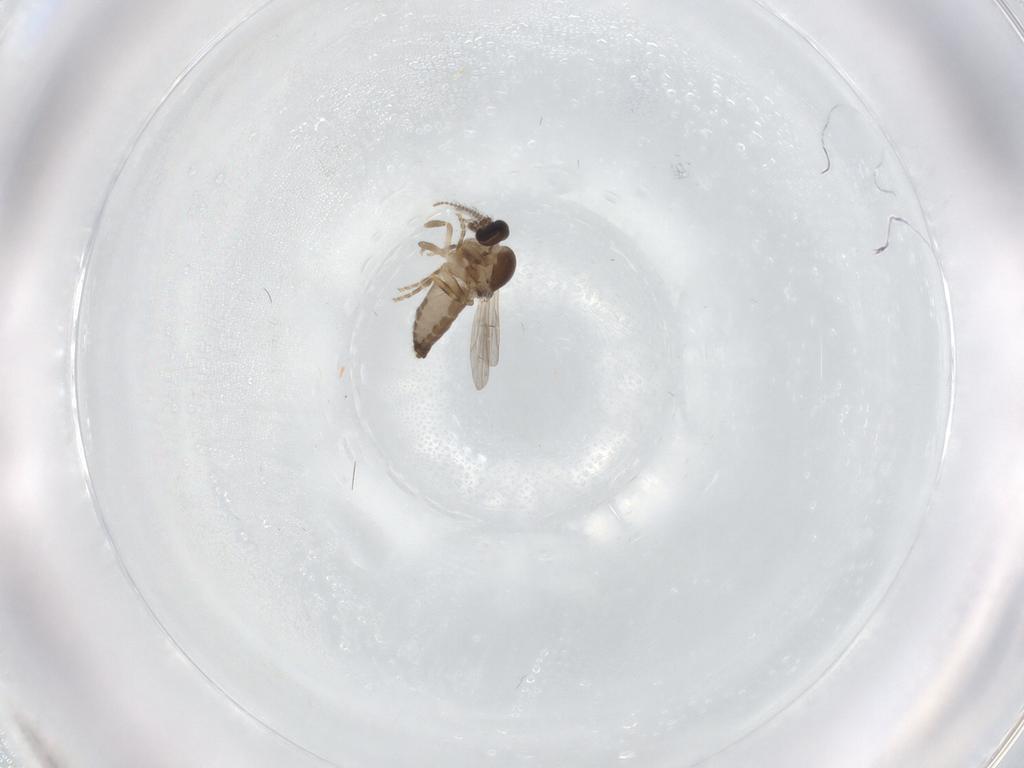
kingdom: Animalia
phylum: Arthropoda
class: Insecta
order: Diptera
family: Ceratopogonidae
